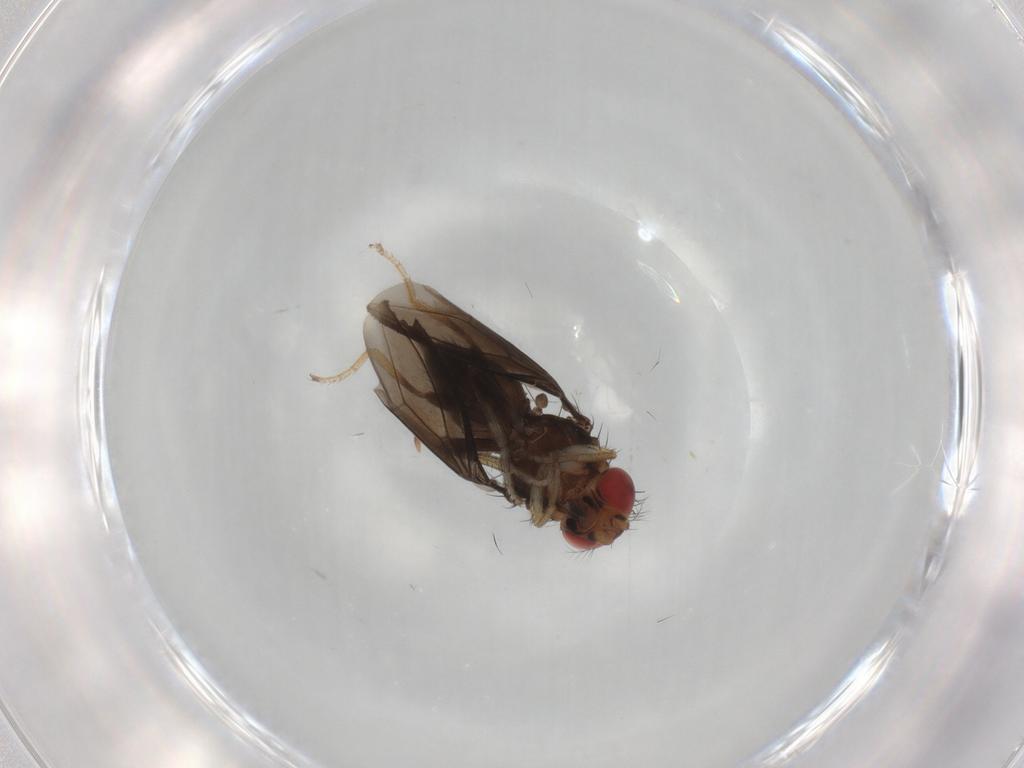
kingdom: Animalia
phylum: Arthropoda
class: Insecta
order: Diptera
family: Drosophilidae
